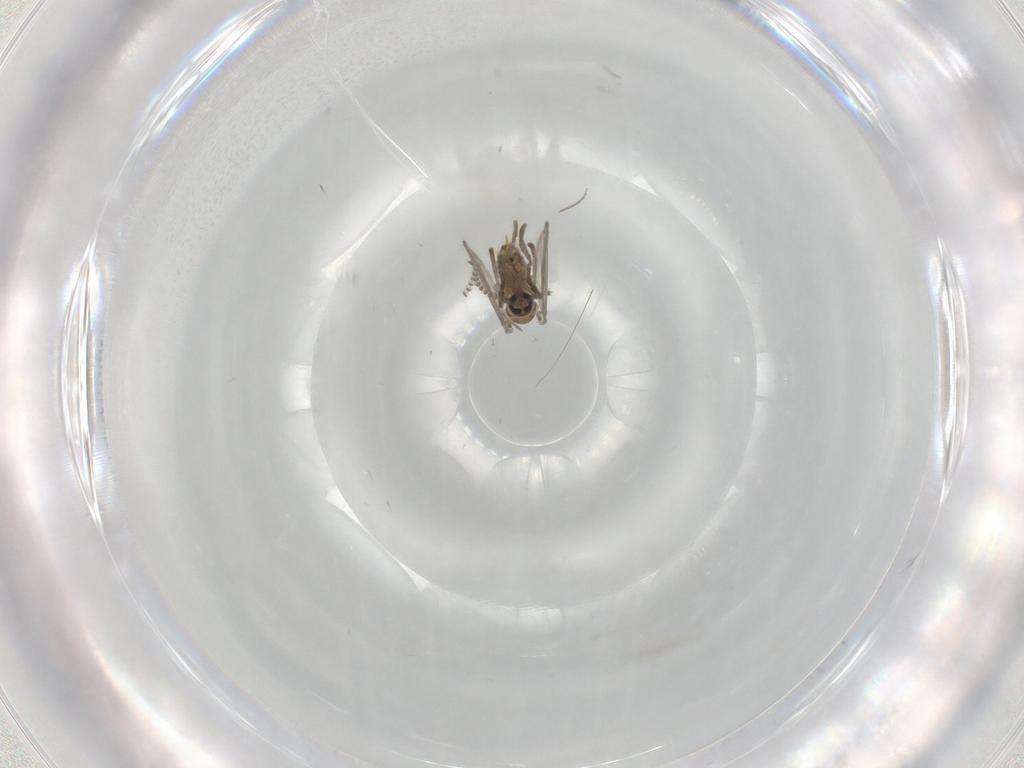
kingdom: Animalia
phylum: Arthropoda
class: Insecta
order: Diptera
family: Psychodidae
